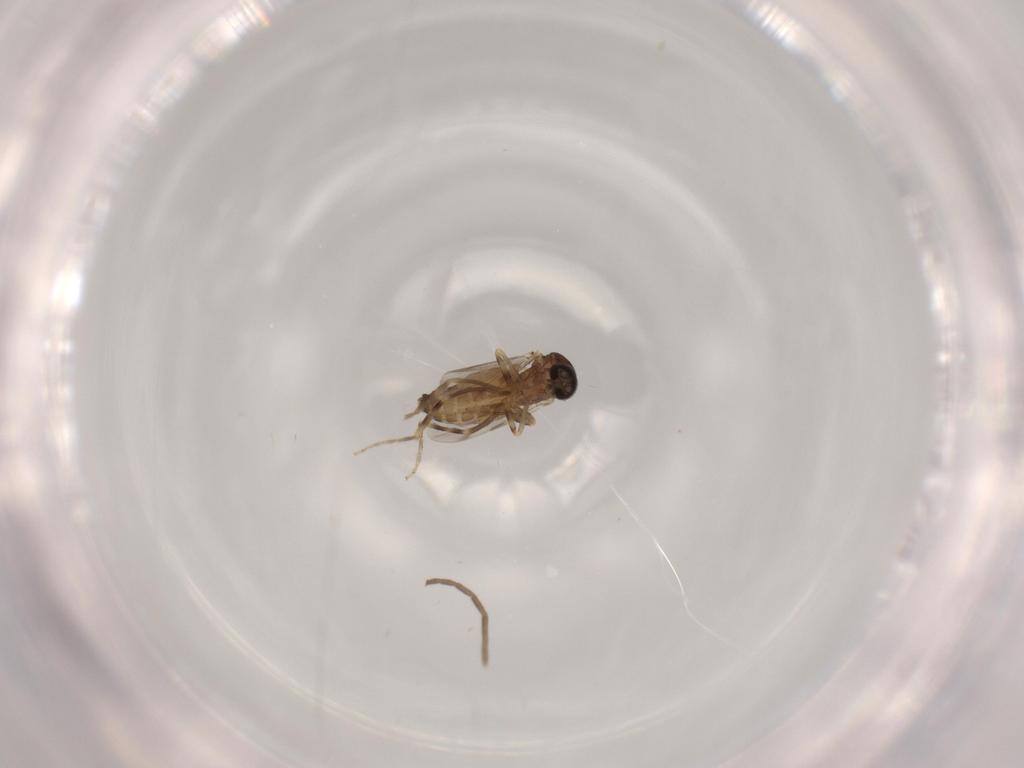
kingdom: Animalia
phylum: Arthropoda
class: Insecta
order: Diptera
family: Ceratopogonidae
